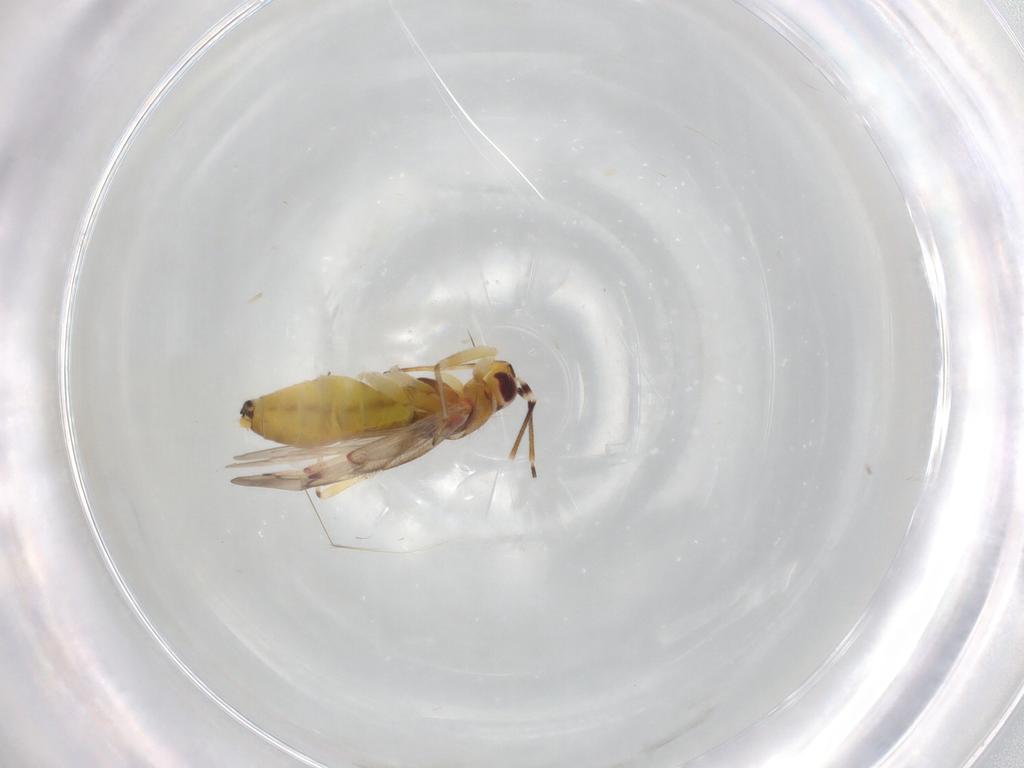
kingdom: Animalia
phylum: Arthropoda
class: Insecta
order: Hemiptera
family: Miridae
